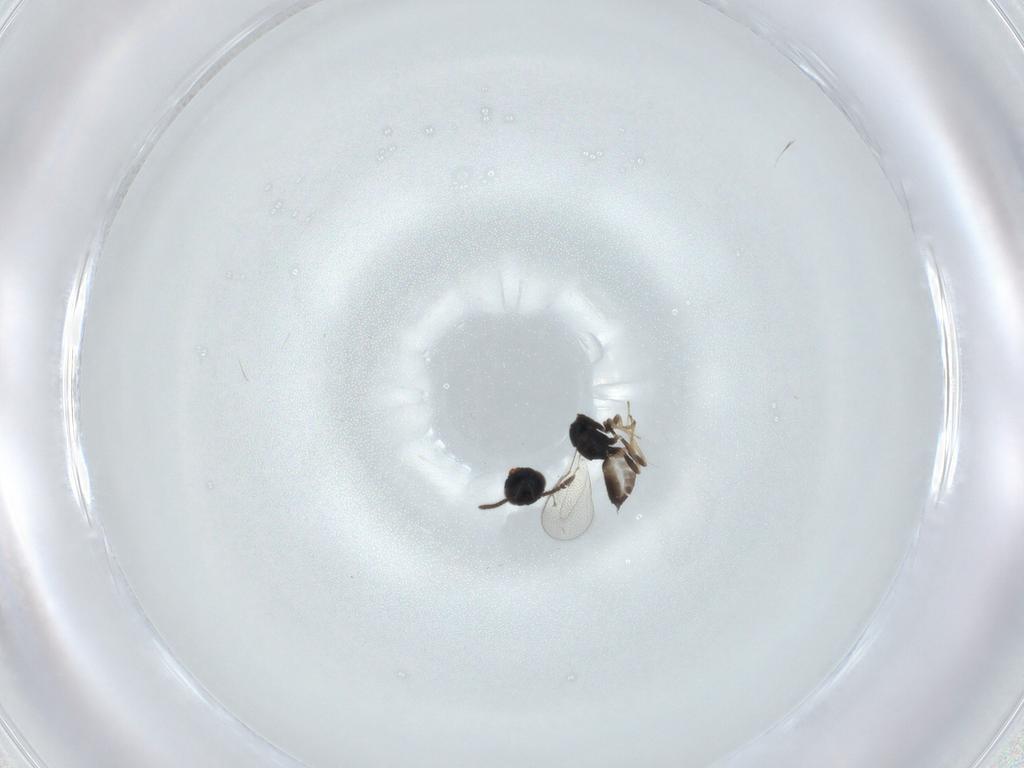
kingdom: Animalia
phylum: Arthropoda
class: Insecta
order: Hymenoptera
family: Pteromalidae
